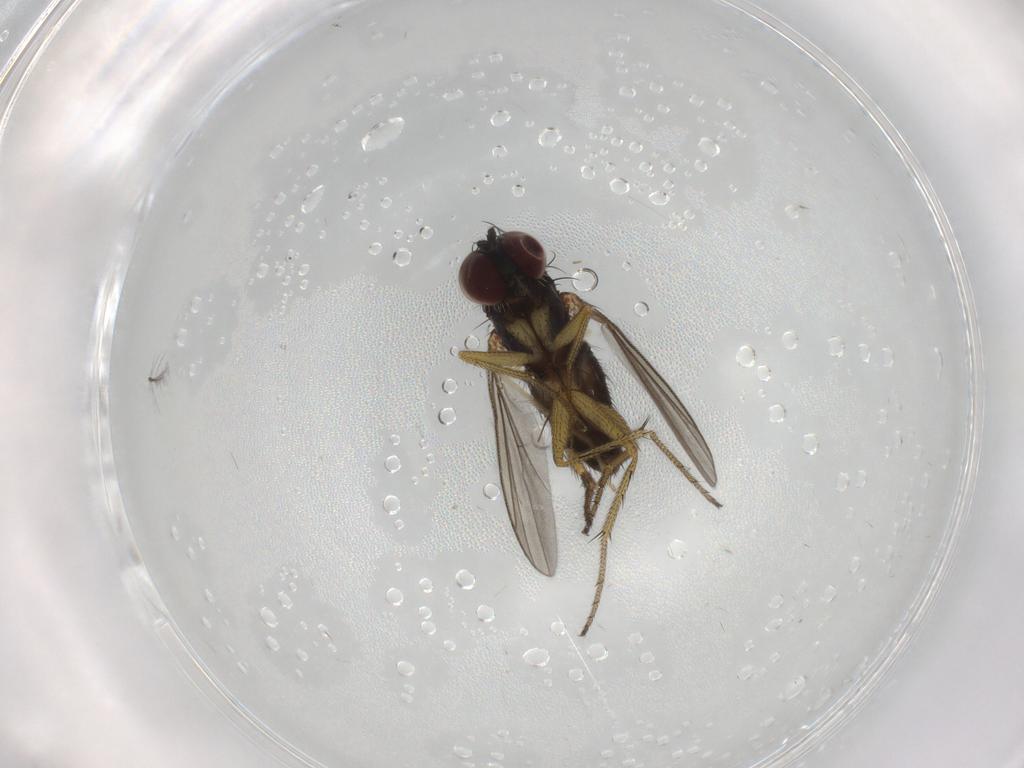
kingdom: Animalia
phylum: Arthropoda
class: Insecta
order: Diptera
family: Chironomidae
